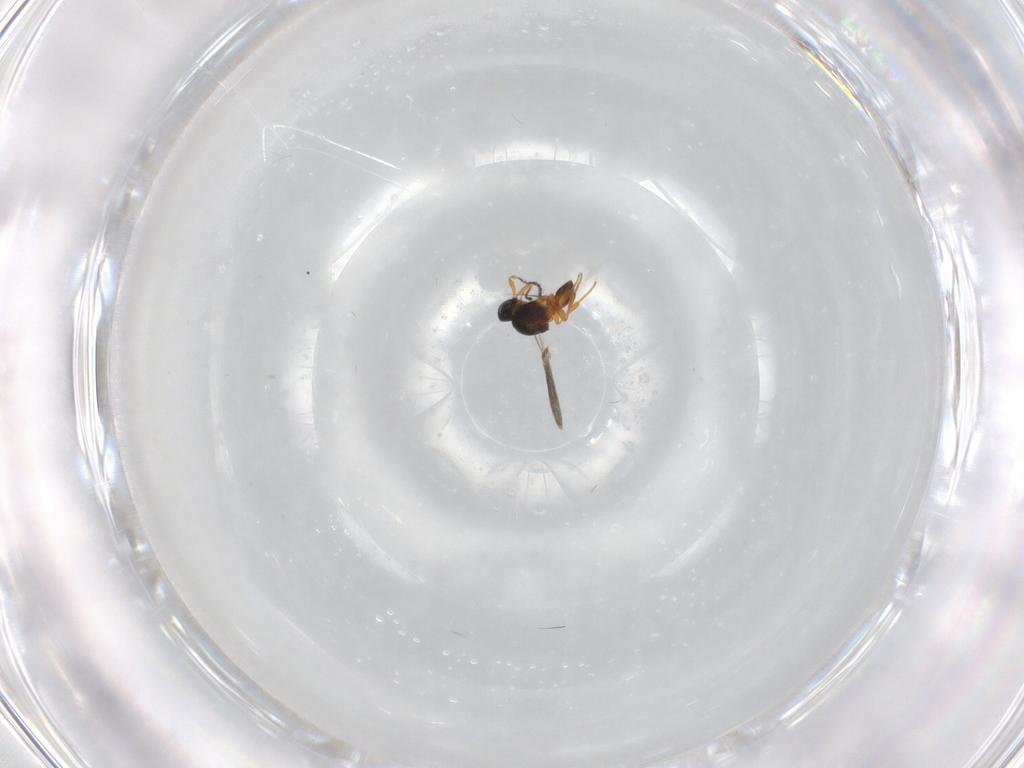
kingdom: Animalia
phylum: Arthropoda
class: Insecta
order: Hymenoptera
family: Platygastridae
